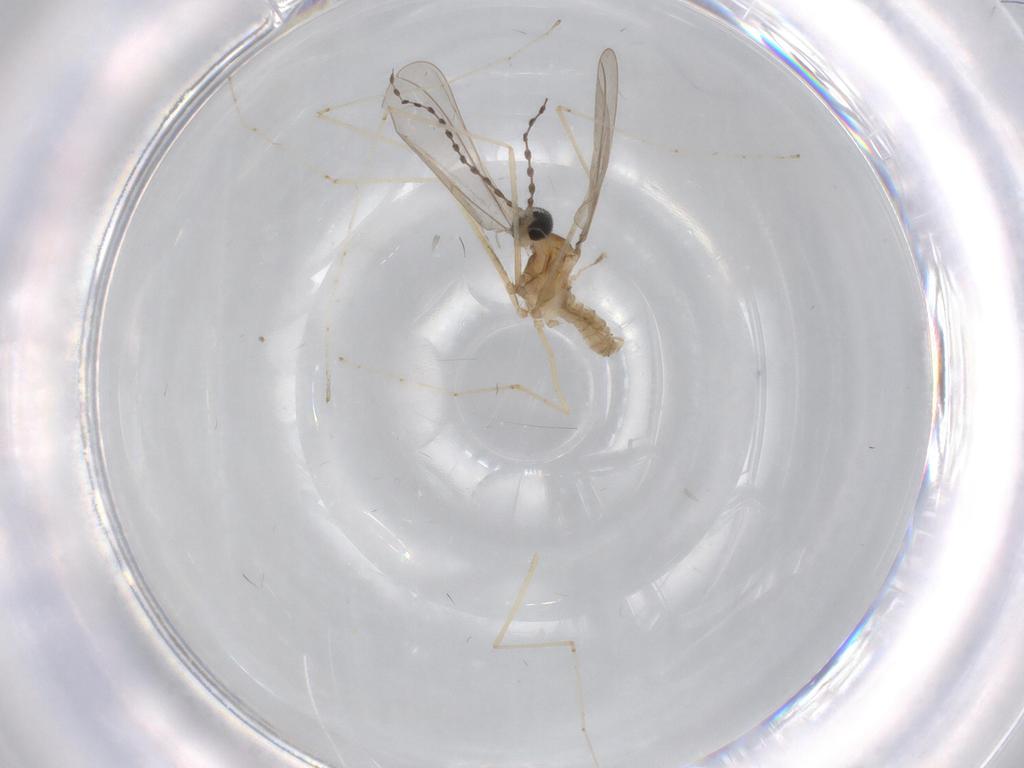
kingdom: Animalia
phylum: Arthropoda
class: Insecta
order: Diptera
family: Cecidomyiidae
